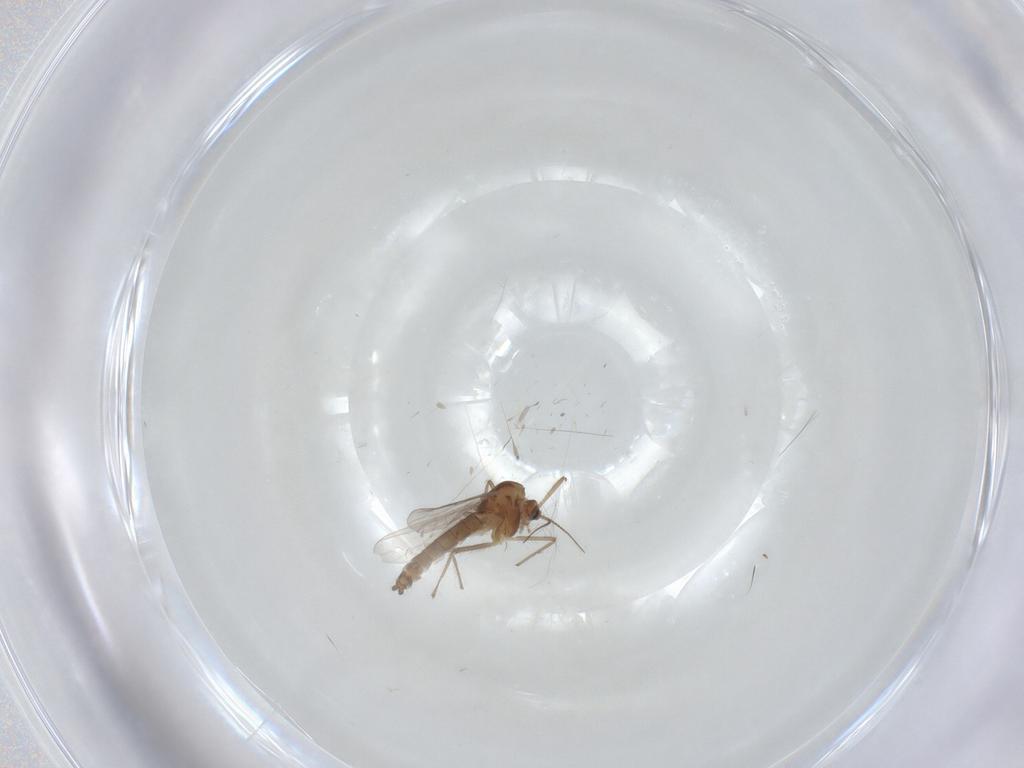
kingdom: Animalia
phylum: Arthropoda
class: Insecta
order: Diptera
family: Chironomidae
